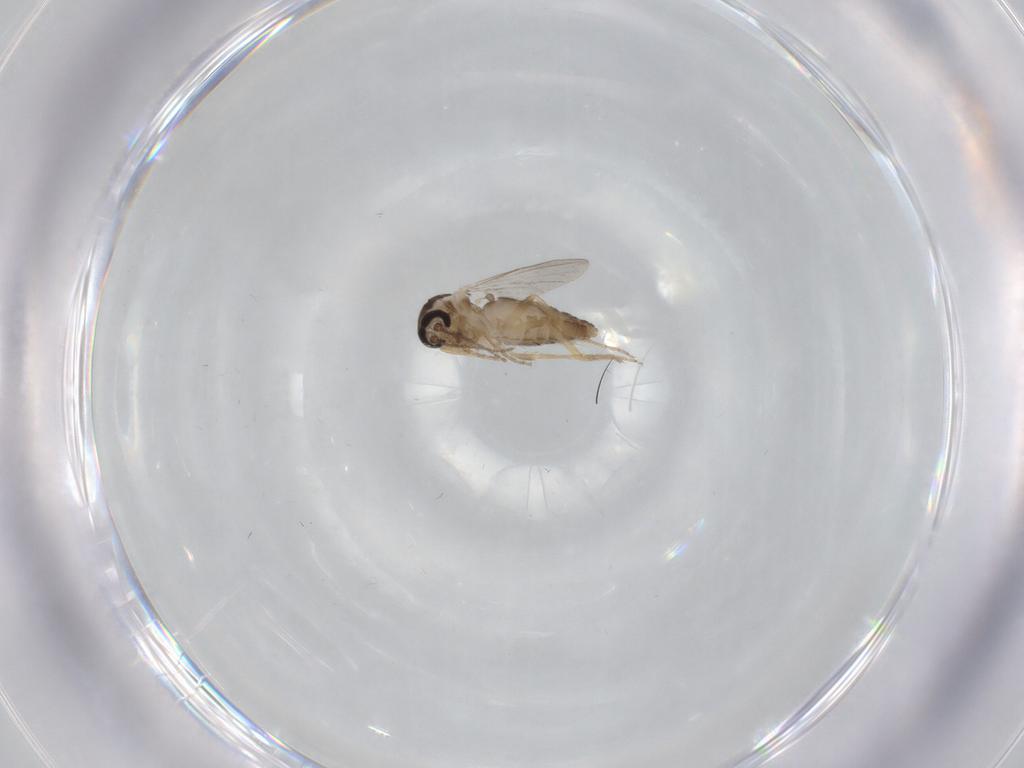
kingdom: Animalia
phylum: Arthropoda
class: Insecta
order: Diptera
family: Ceratopogonidae
